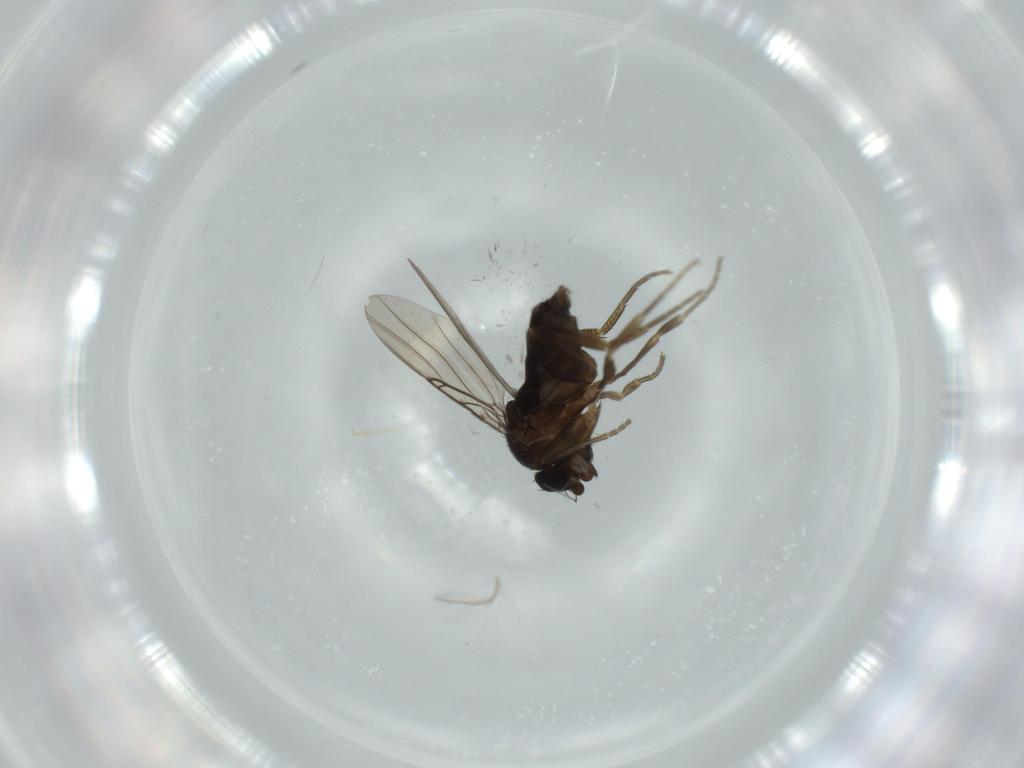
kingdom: Animalia
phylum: Arthropoda
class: Insecta
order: Diptera
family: Phoridae
